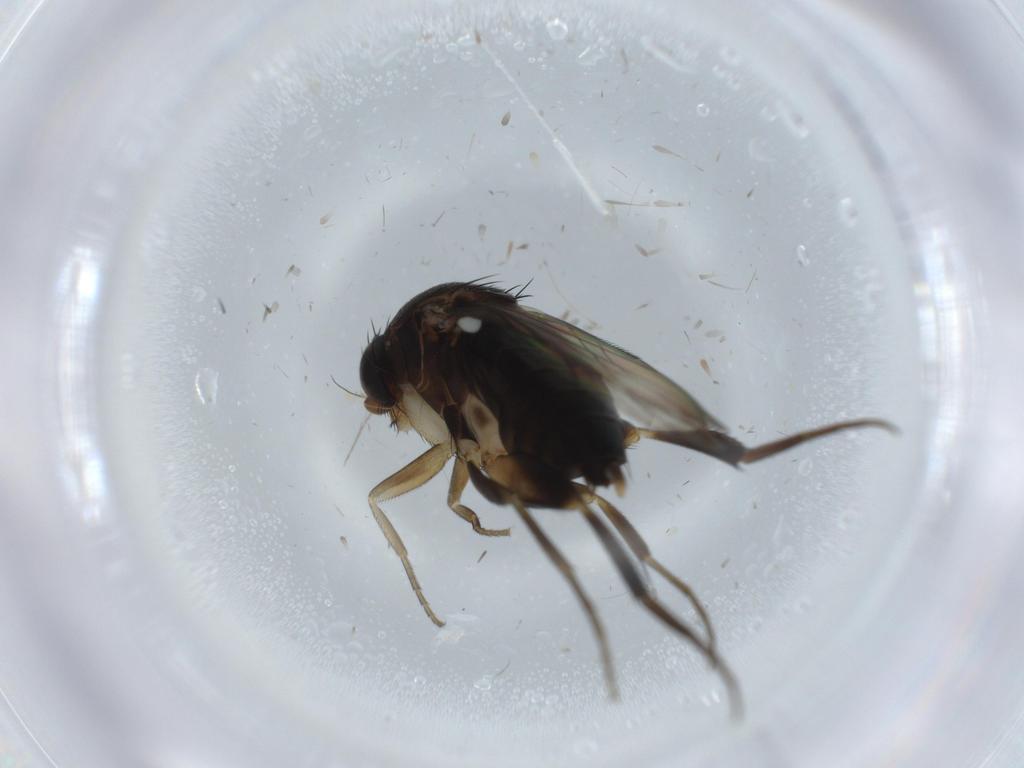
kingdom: Animalia
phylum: Arthropoda
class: Insecta
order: Diptera
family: Phoridae
